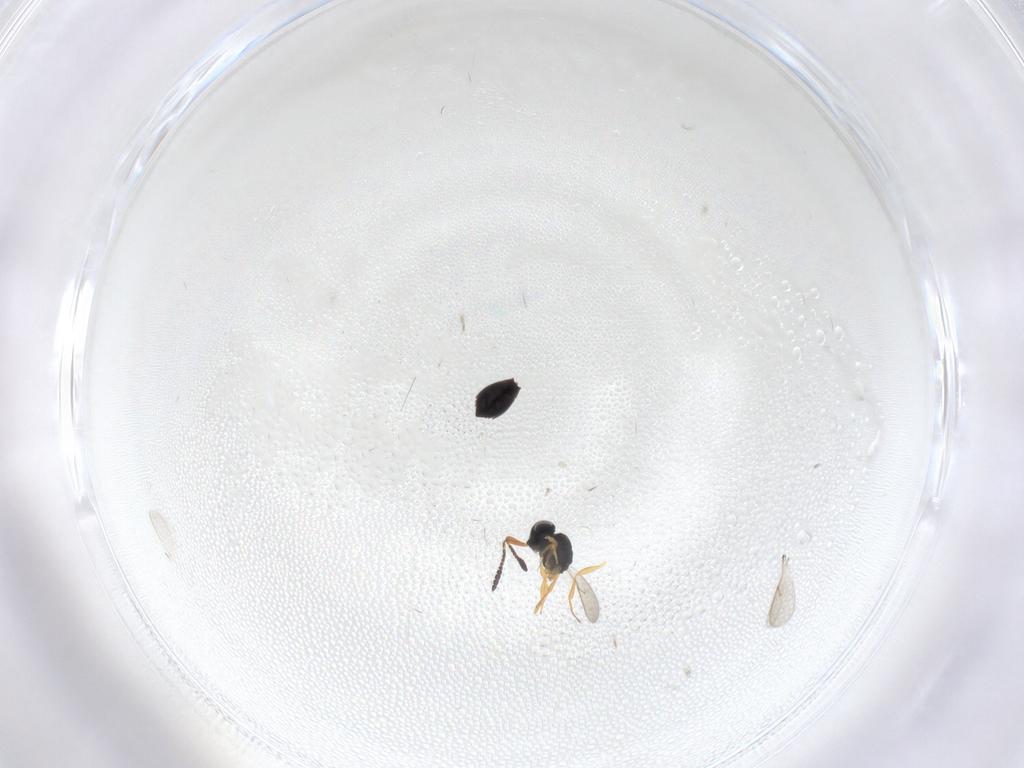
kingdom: Animalia
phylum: Arthropoda
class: Insecta
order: Hymenoptera
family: Scelionidae
